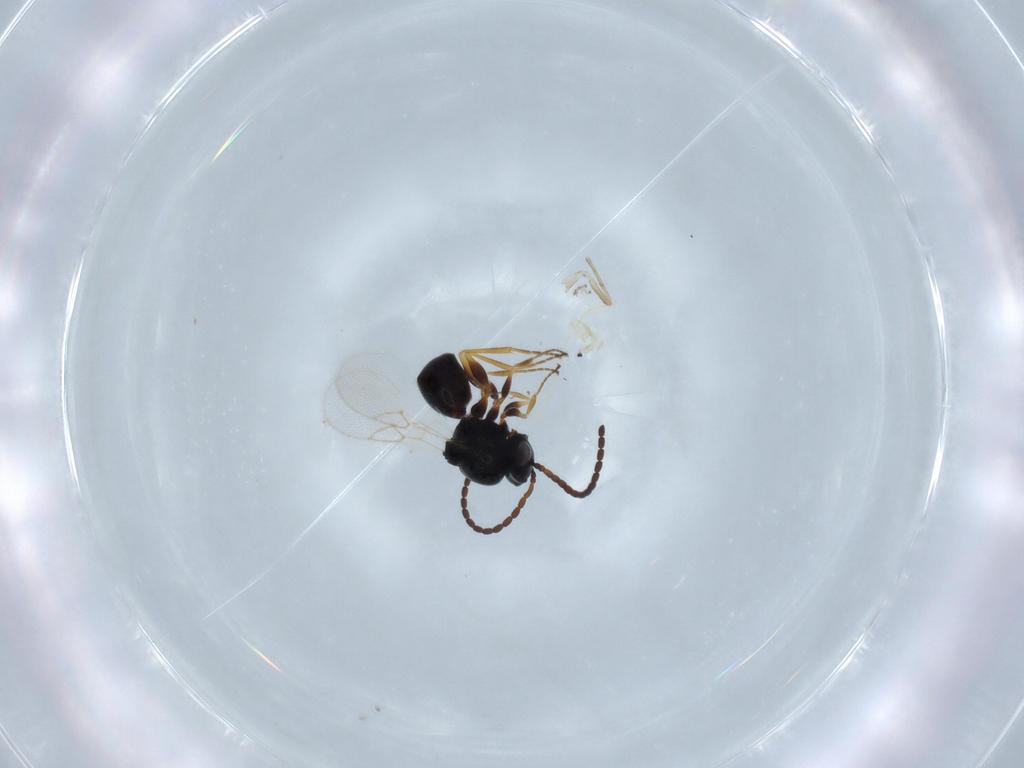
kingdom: Animalia
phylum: Arthropoda
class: Insecta
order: Hymenoptera
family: Figitidae
